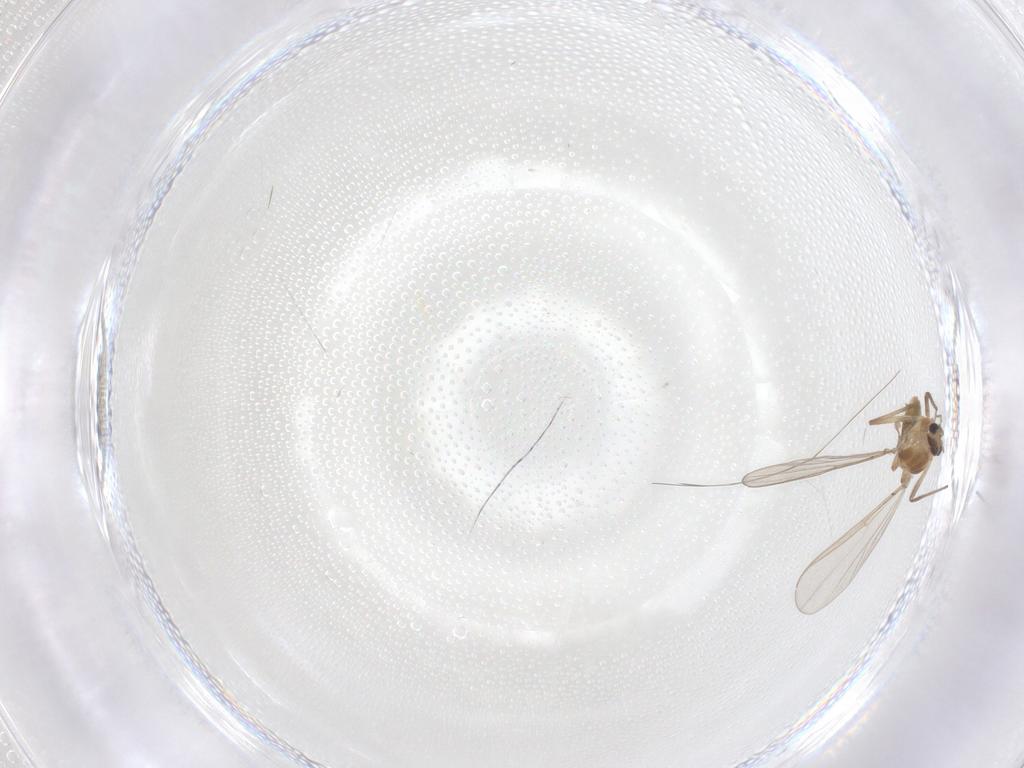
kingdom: Animalia
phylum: Arthropoda
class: Insecta
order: Diptera
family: Chironomidae
